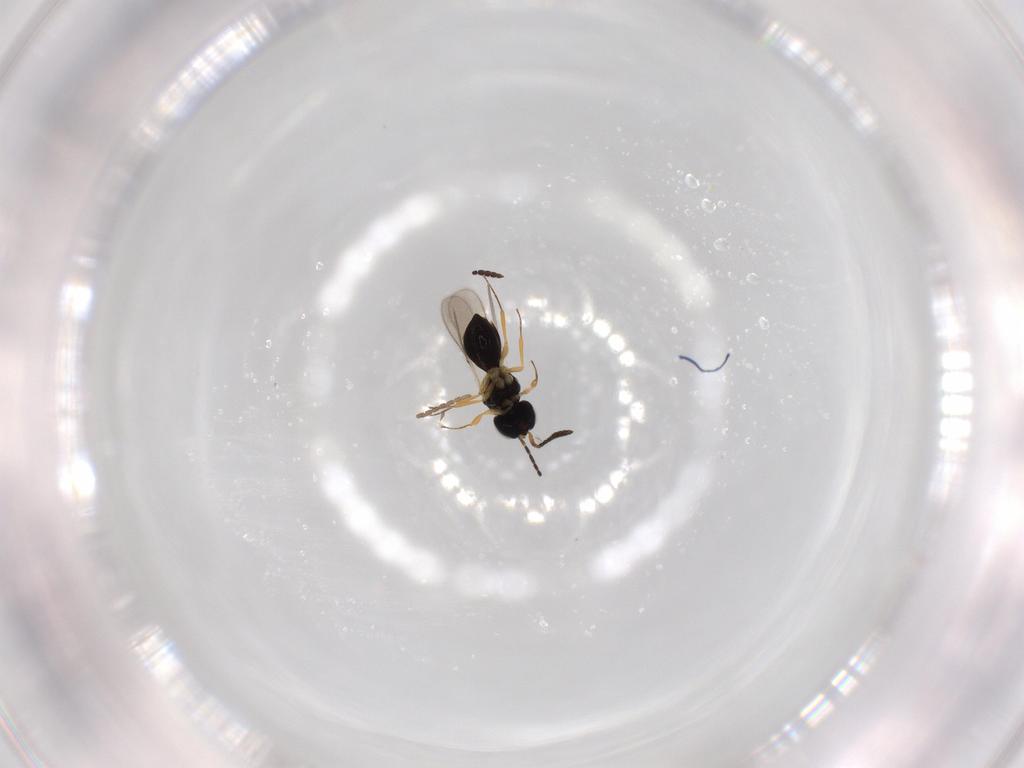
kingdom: Animalia
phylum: Arthropoda
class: Insecta
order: Hymenoptera
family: Scelionidae
